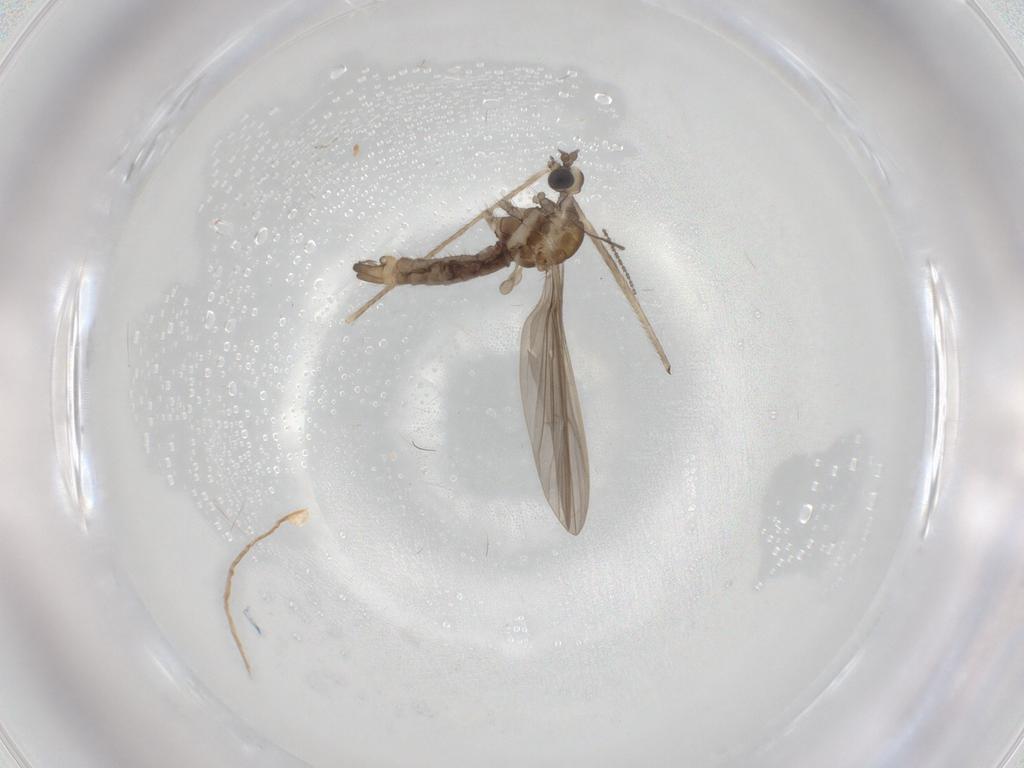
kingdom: Animalia
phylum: Arthropoda
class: Insecta
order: Diptera
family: Limoniidae
